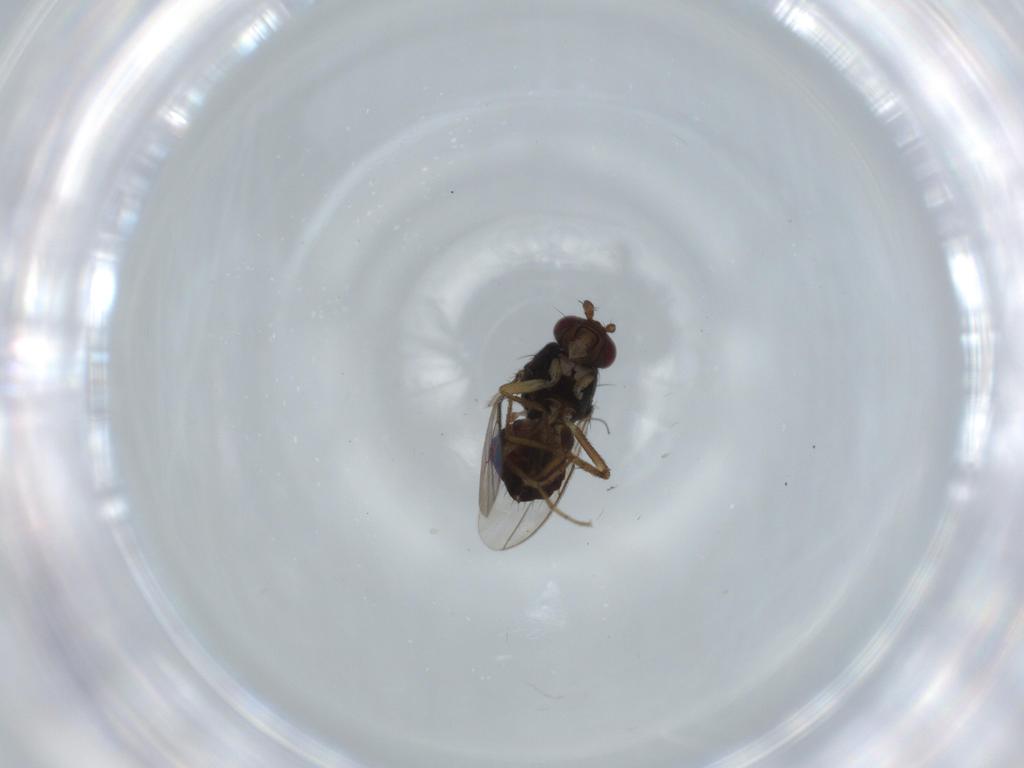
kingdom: Animalia
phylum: Arthropoda
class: Insecta
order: Diptera
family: Sphaeroceridae
